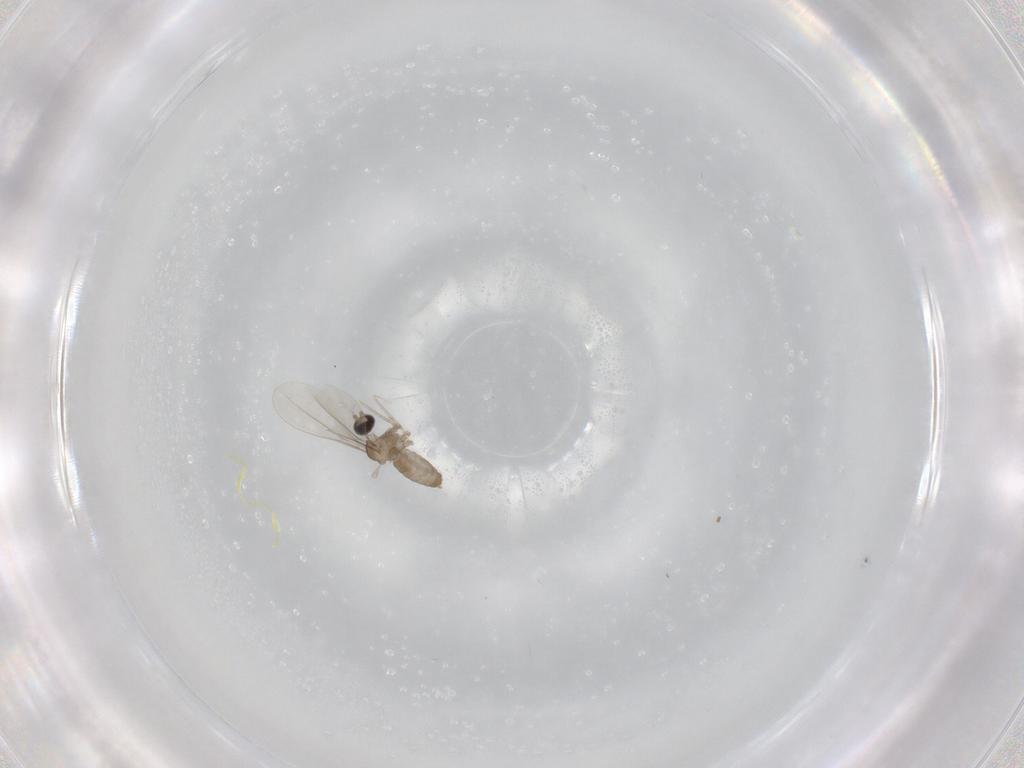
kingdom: Animalia
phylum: Arthropoda
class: Insecta
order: Diptera
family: Cecidomyiidae
